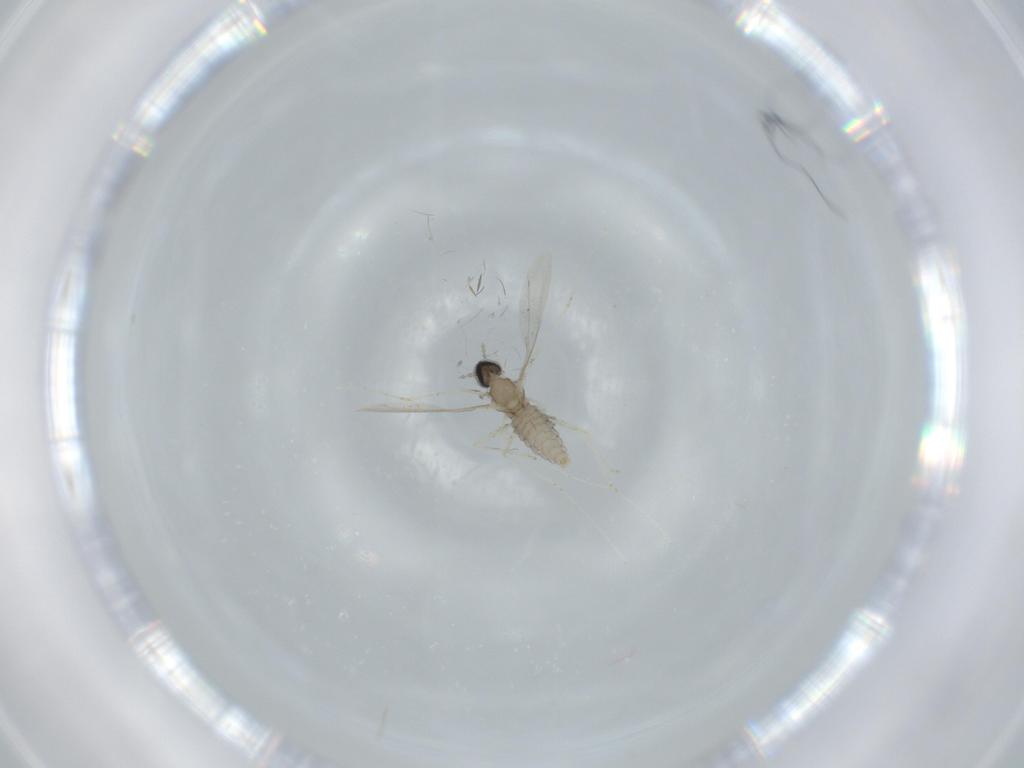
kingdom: Animalia
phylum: Arthropoda
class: Insecta
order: Diptera
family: Cecidomyiidae
